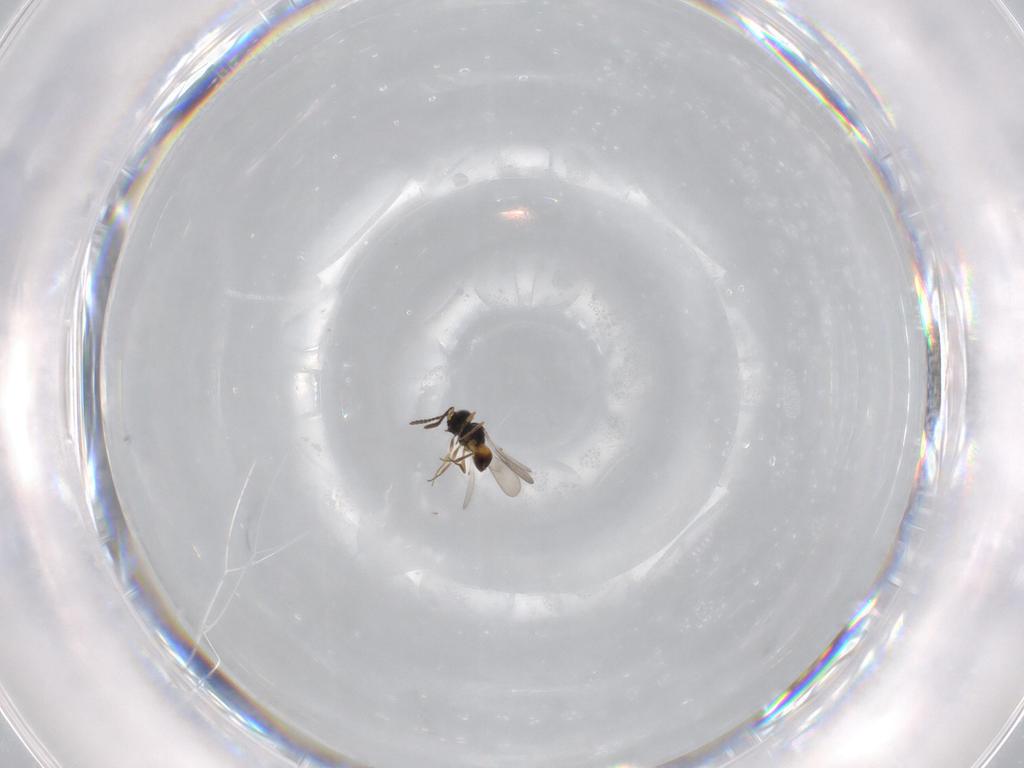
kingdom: Animalia
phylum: Arthropoda
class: Insecta
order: Hymenoptera
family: Scelionidae
